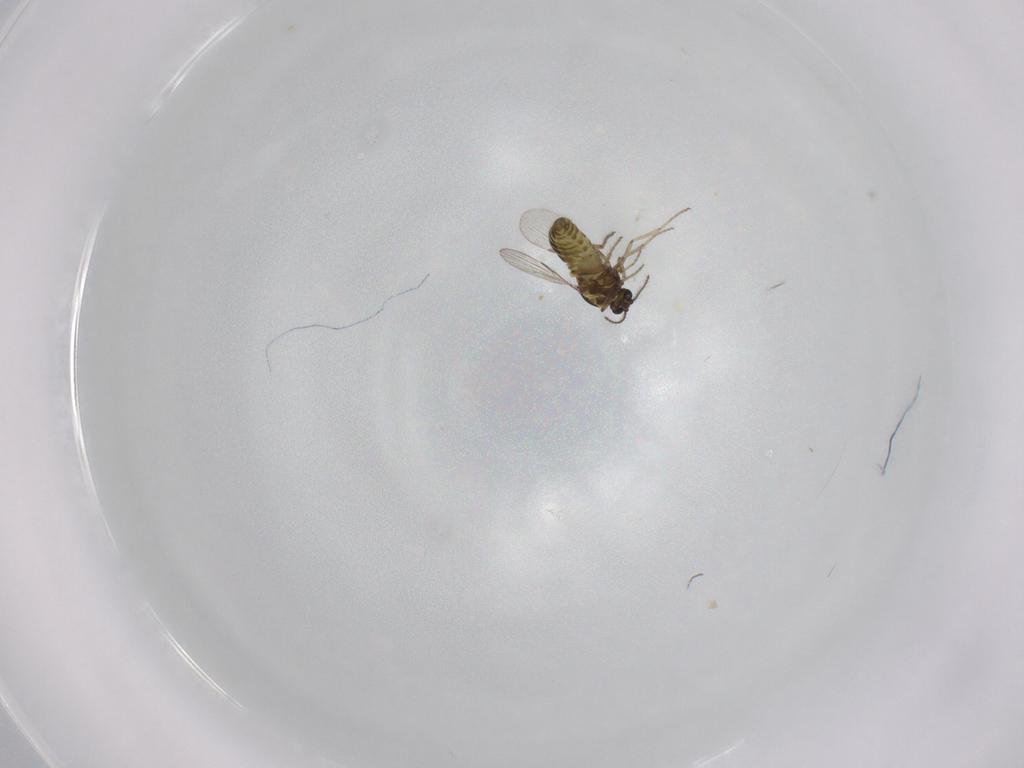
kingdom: Animalia
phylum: Arthropoda
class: Insecta
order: Diptera
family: Ceratopogonidae
